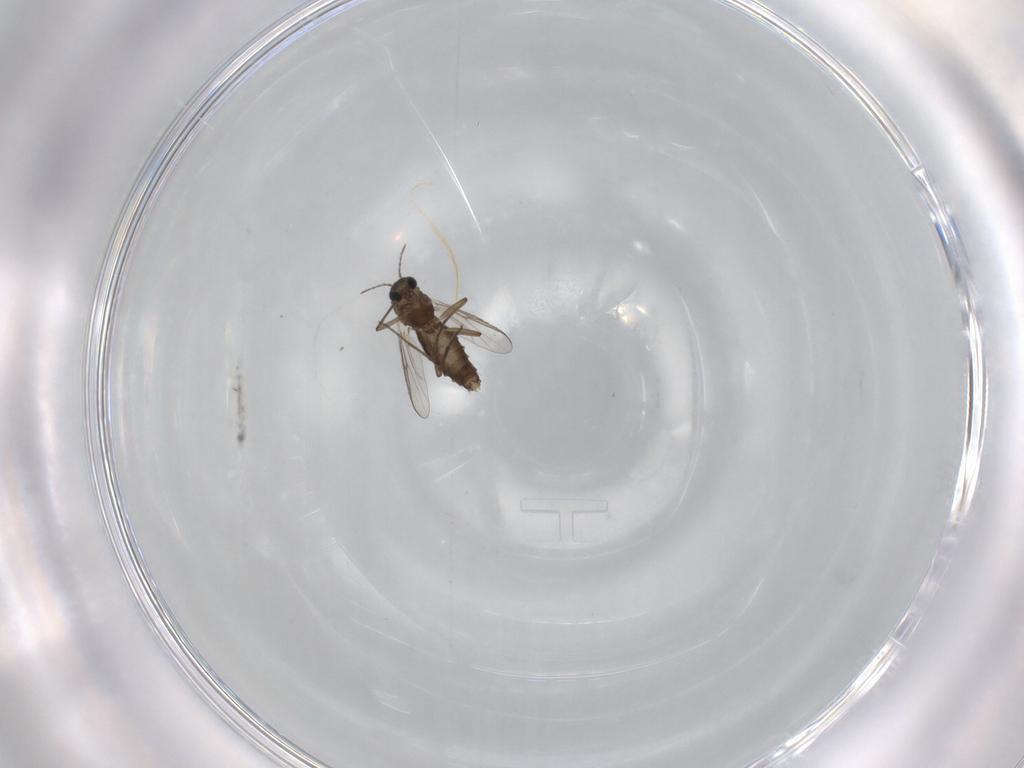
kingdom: Animalia
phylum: Arthropoda
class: Insecta
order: Diptera
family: Chironomidae
